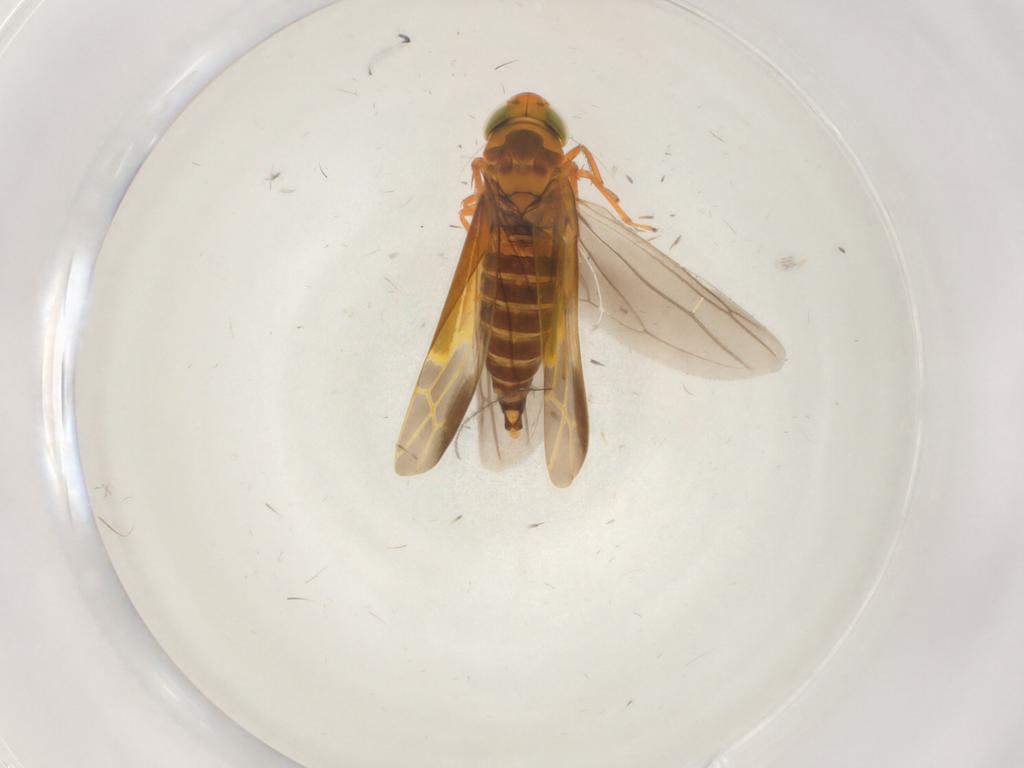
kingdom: Animalia
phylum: Arthropoda
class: Insecta
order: Hemiptera
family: Cicadellidae
